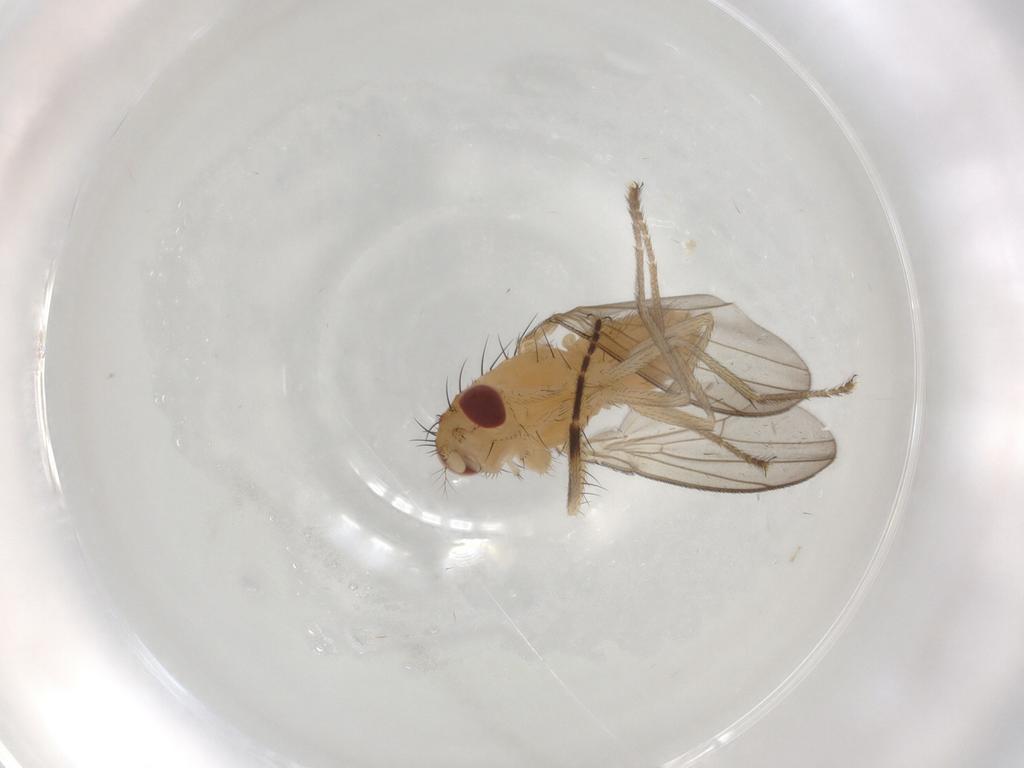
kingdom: Animalia
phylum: Arthropoda
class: Insecta
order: Diptera
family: Drosophilidae
